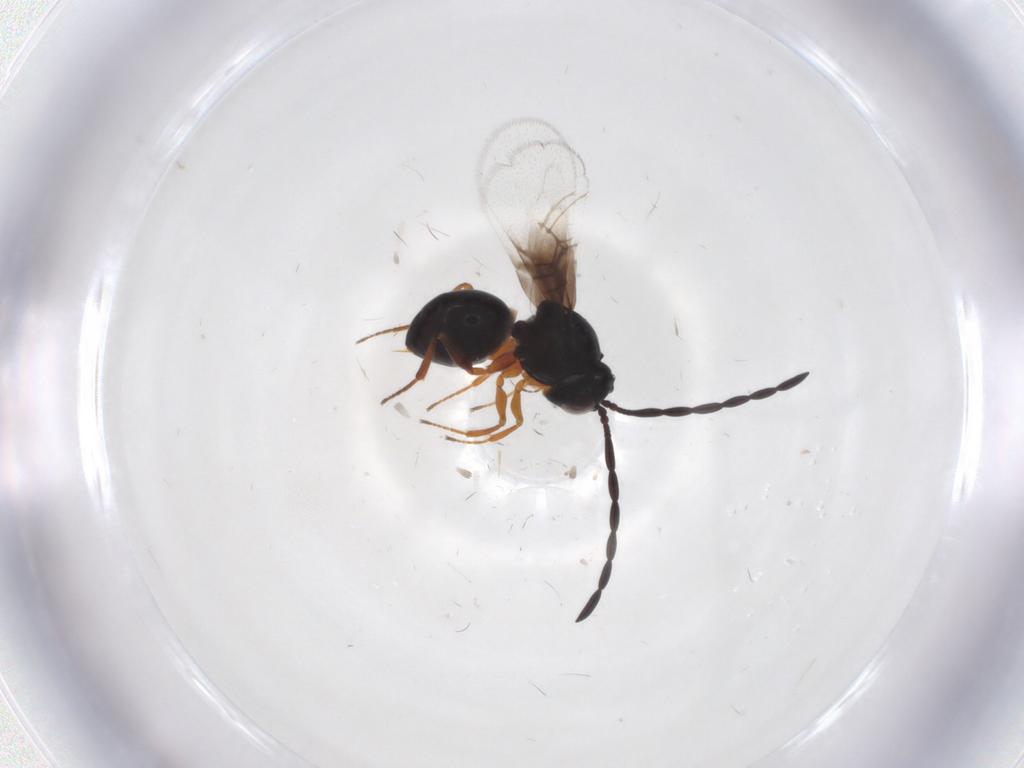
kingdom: Animalia
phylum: Arthropoda
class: Insecta
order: Hymenoptera
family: Figitidae
